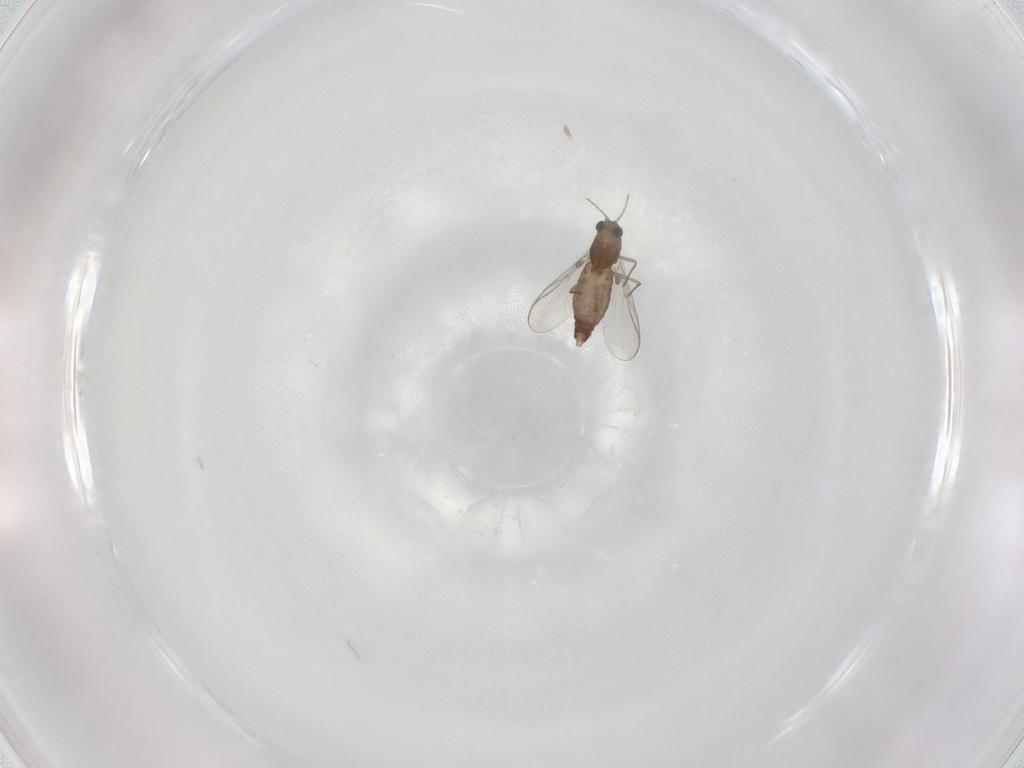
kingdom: Animalia
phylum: Arthropoda
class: Insecta
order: Diptera
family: Chironomidae
